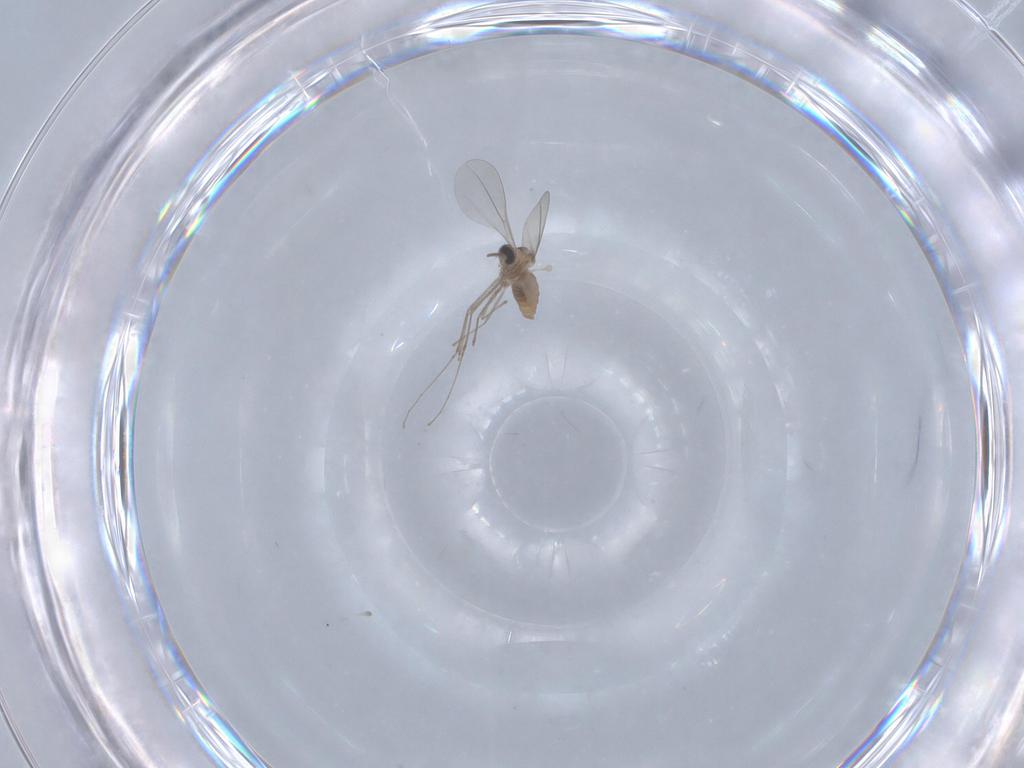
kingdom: Animalia
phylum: Arthropoda
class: Insecta
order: Diptera
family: Cecidomyiidae
